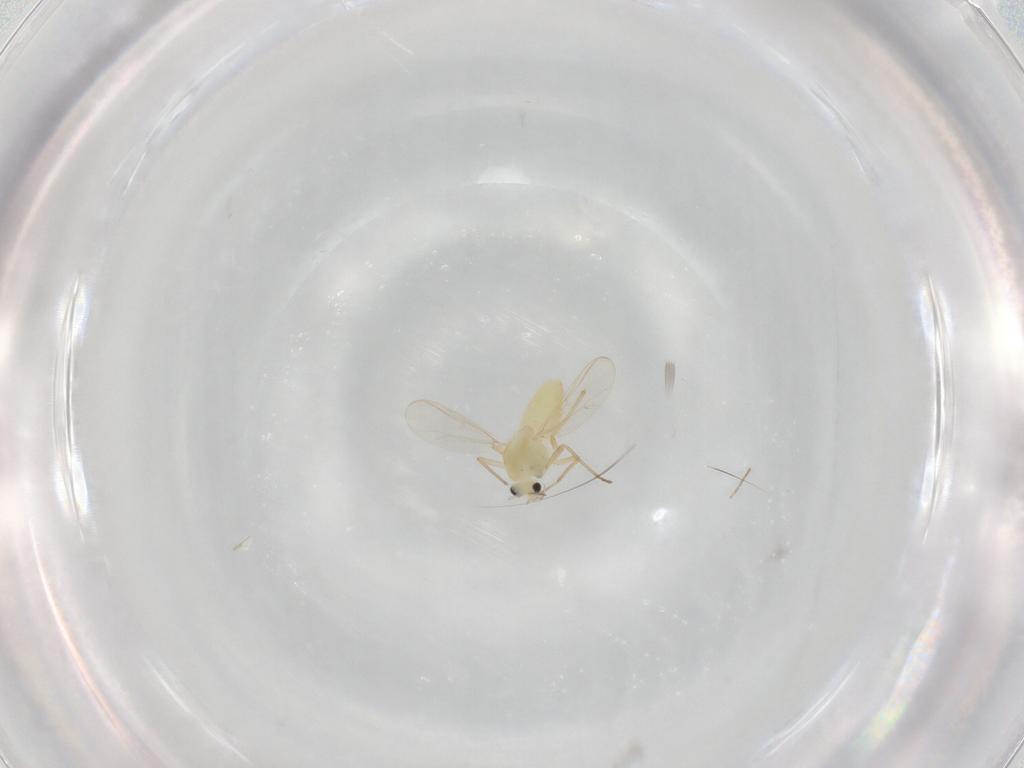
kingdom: Animalia
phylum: Arthropoda
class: Insecta
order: Diptera
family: Chironomidae
